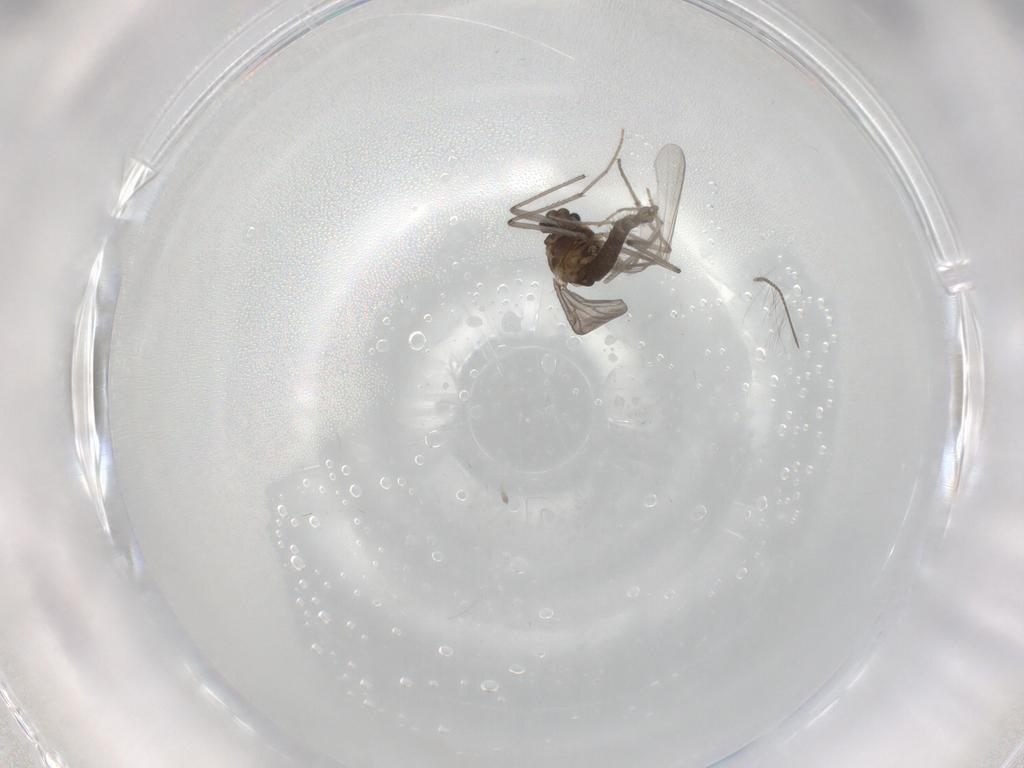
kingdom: Animalia
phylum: Arthropoda
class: Insecta
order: Diptera
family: Chironomidae
